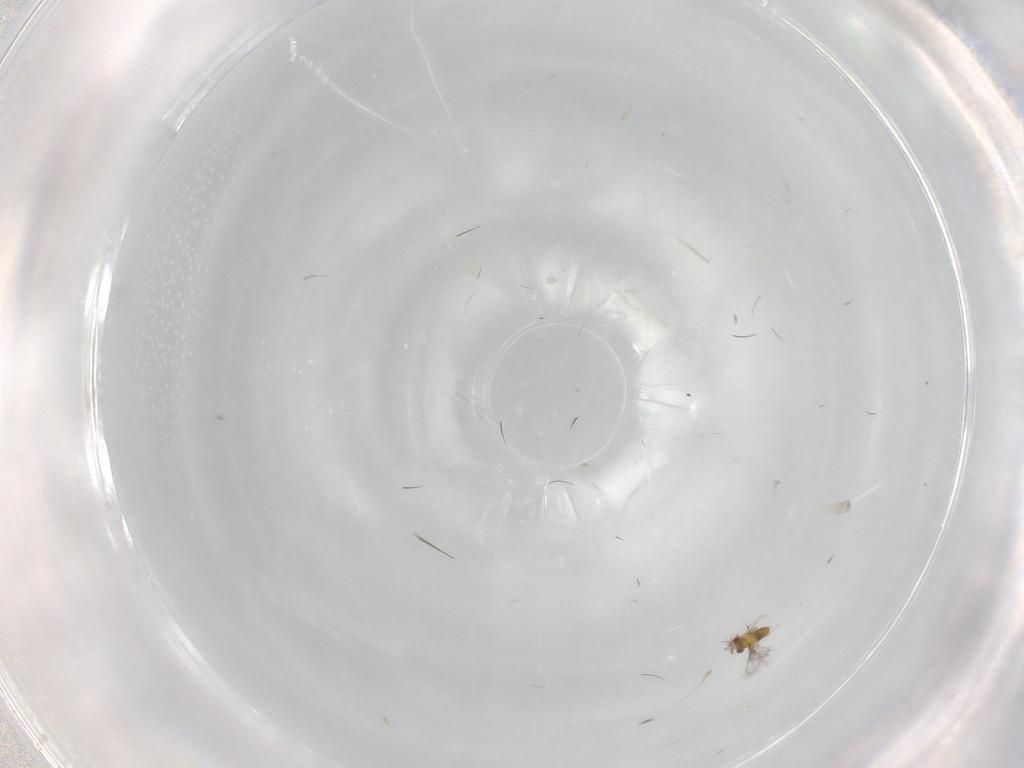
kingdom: Animalia
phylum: Arthropoda
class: Insecta
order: Hymenoptera
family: Trichogrammatidae
